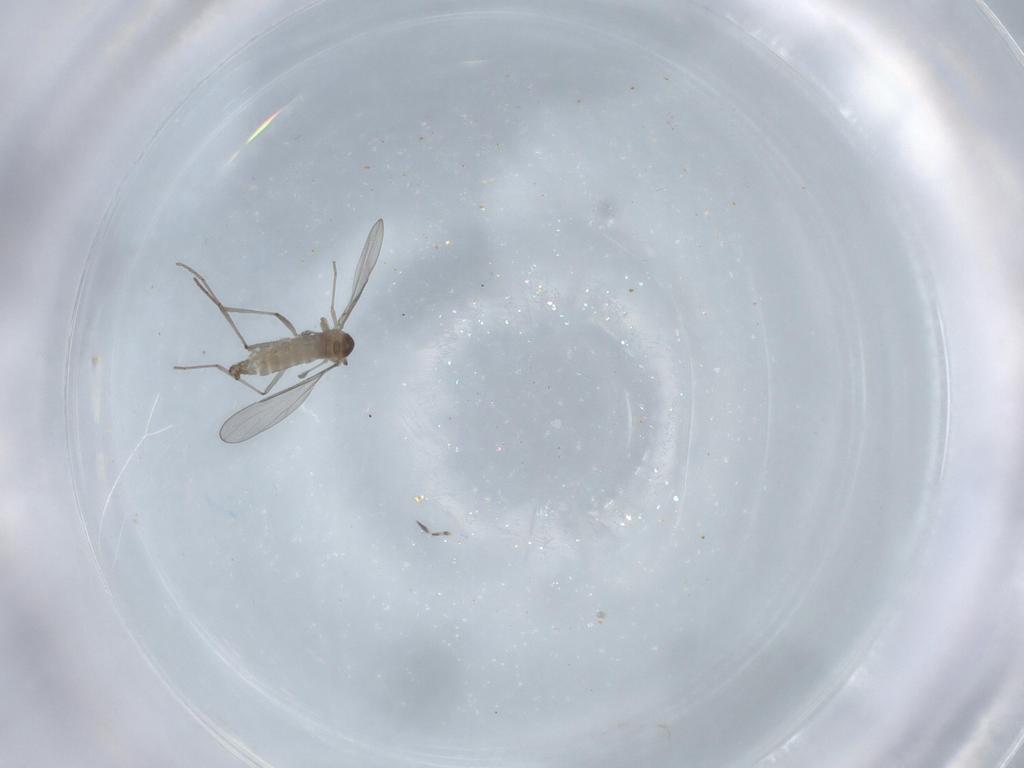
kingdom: Animalia
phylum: Arthropoda
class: Insecta
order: Diptera
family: Cecidomyiidae
